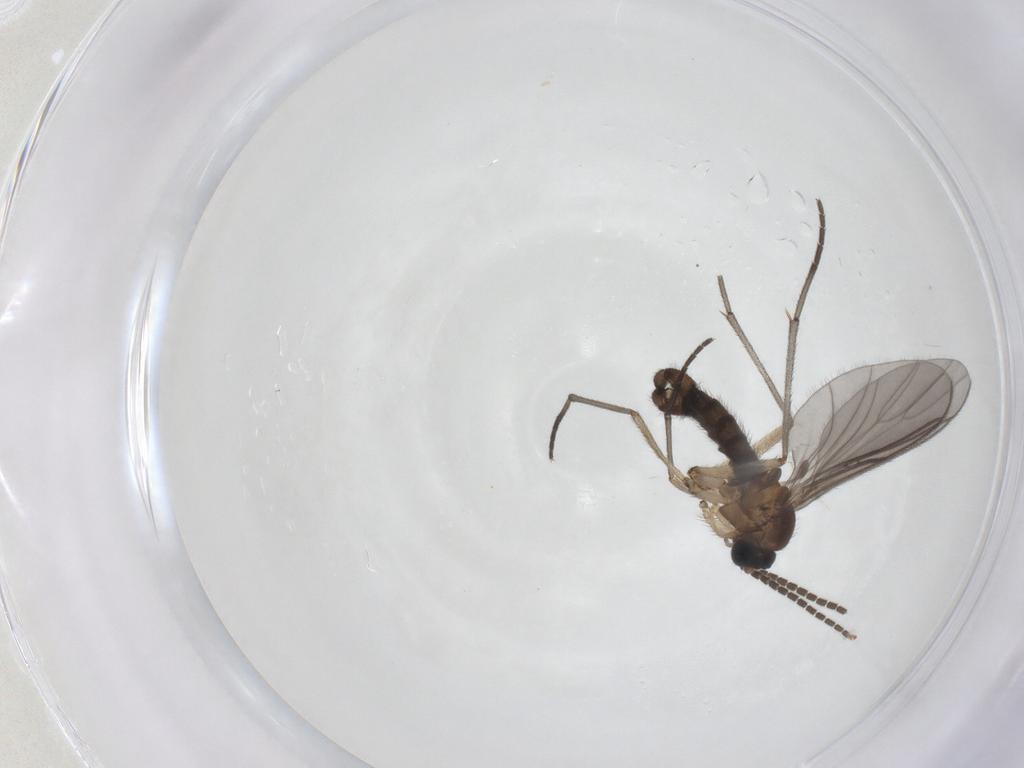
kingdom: Animalia
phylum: Arthropoda
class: Insecta
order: Diptera
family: Sciaridae
